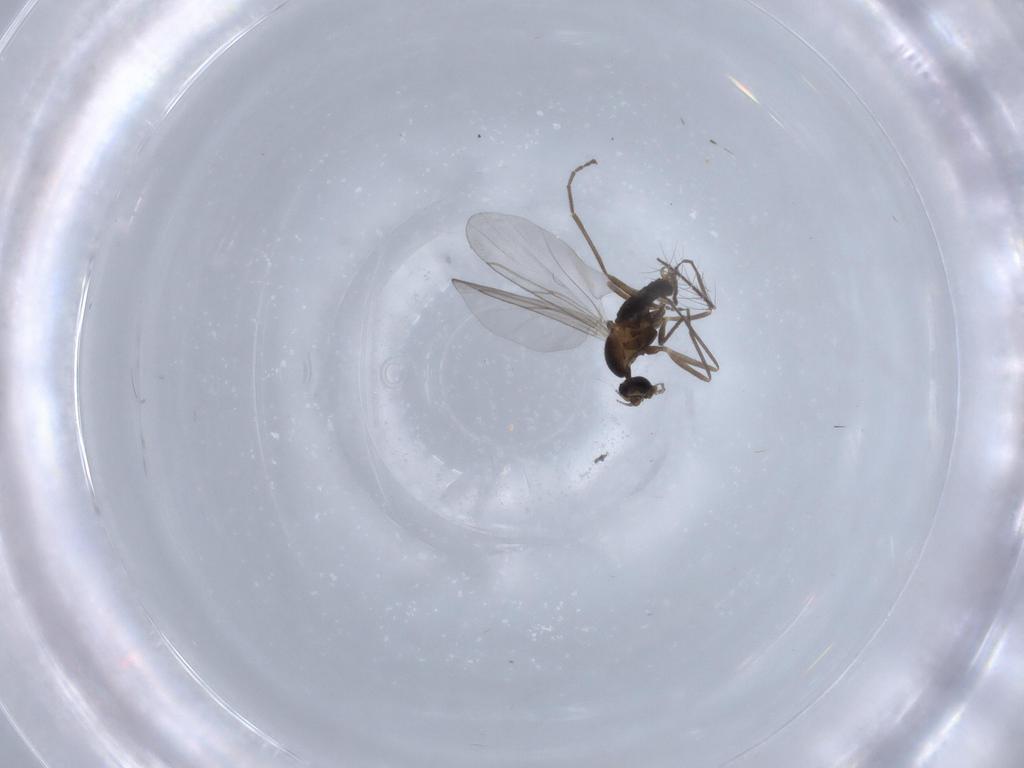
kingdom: Animalia
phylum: Arthropoda
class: Insecta
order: Diptera
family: Cecidomyiidae
